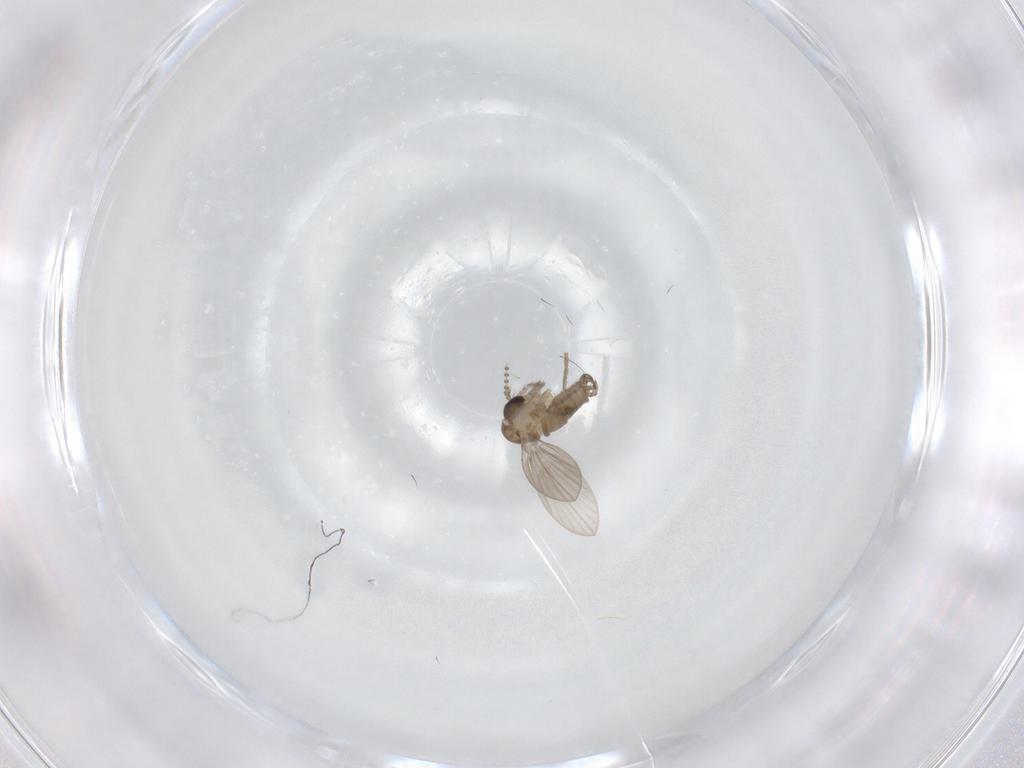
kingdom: Animalia
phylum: Arthropoda
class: Insecta
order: Diptera
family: Psychodidae
